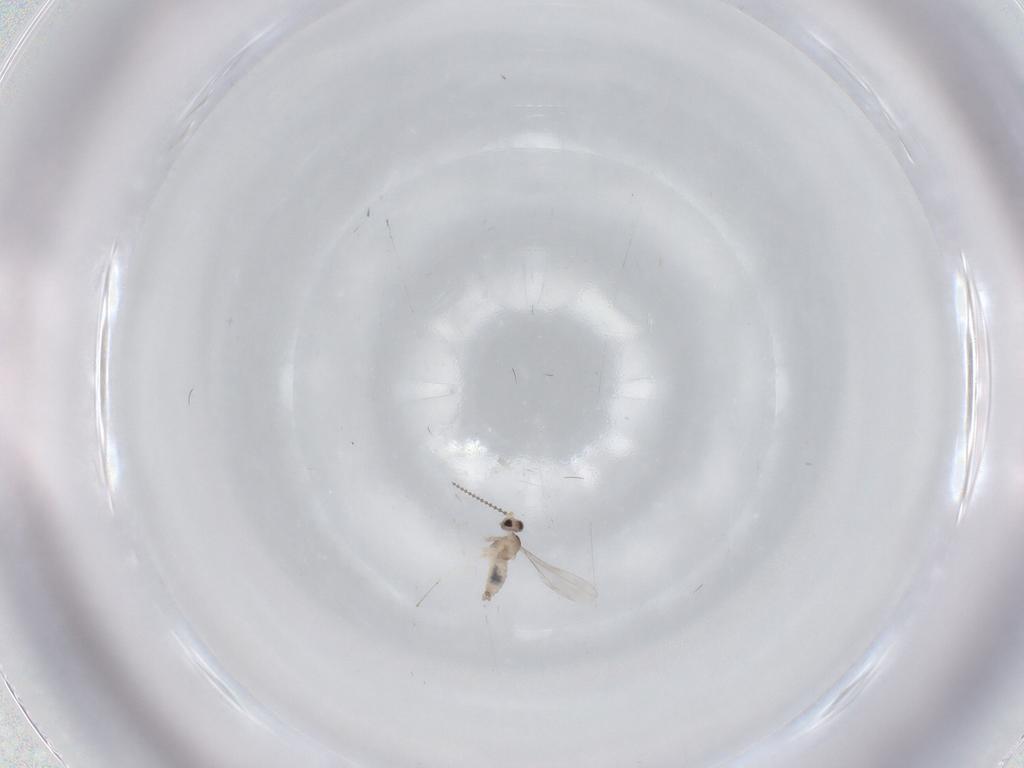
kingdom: Animalia
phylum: Arthropoda
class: Insecta
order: Diptera
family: Cecidomyiidae
